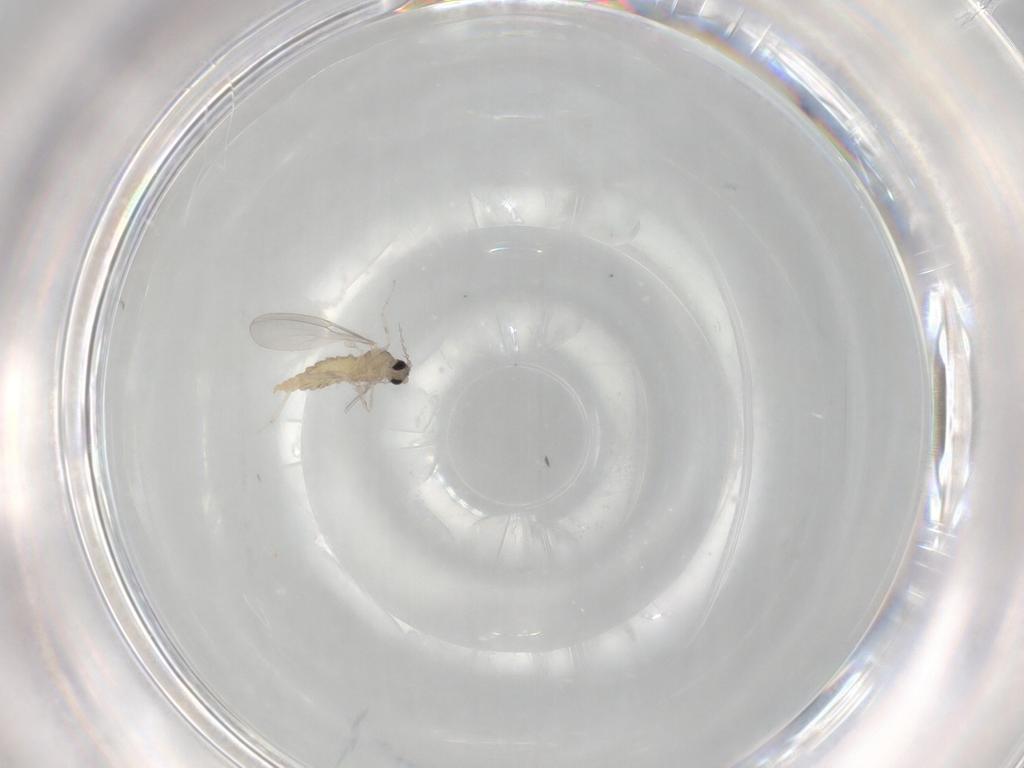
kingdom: Animalia
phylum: Arthropoda
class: Insecta
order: Diptera
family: Cecidomyiidae
